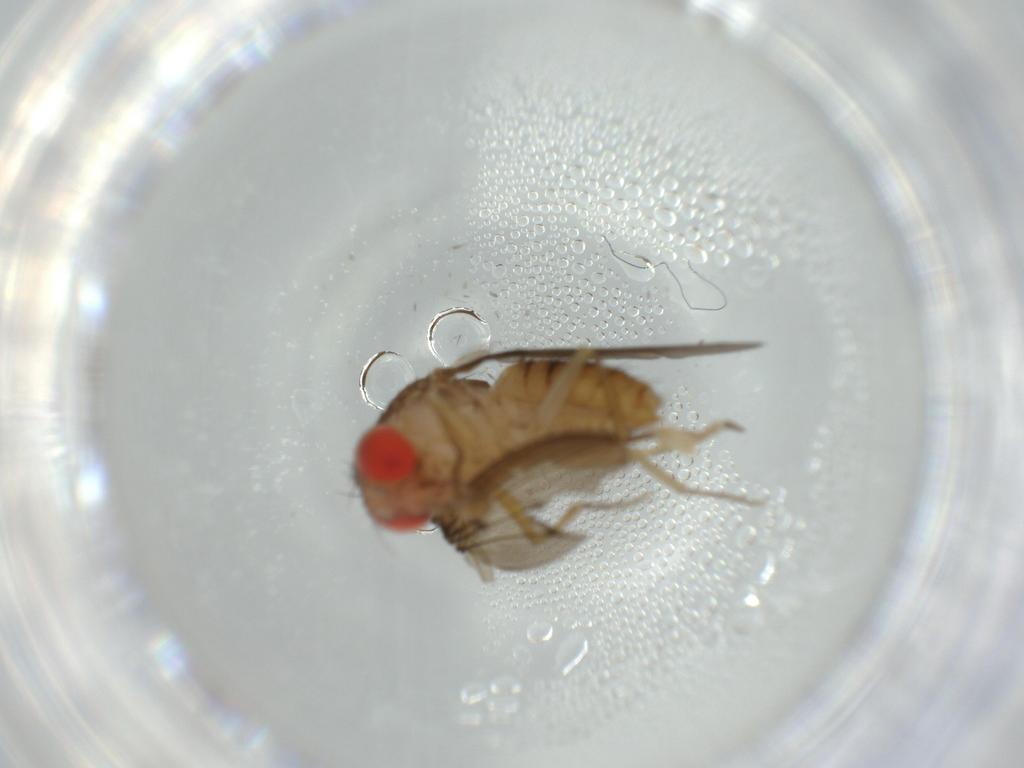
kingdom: Animalia
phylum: Arthropoda
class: Insecta
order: Diptera
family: Drosophilidae
